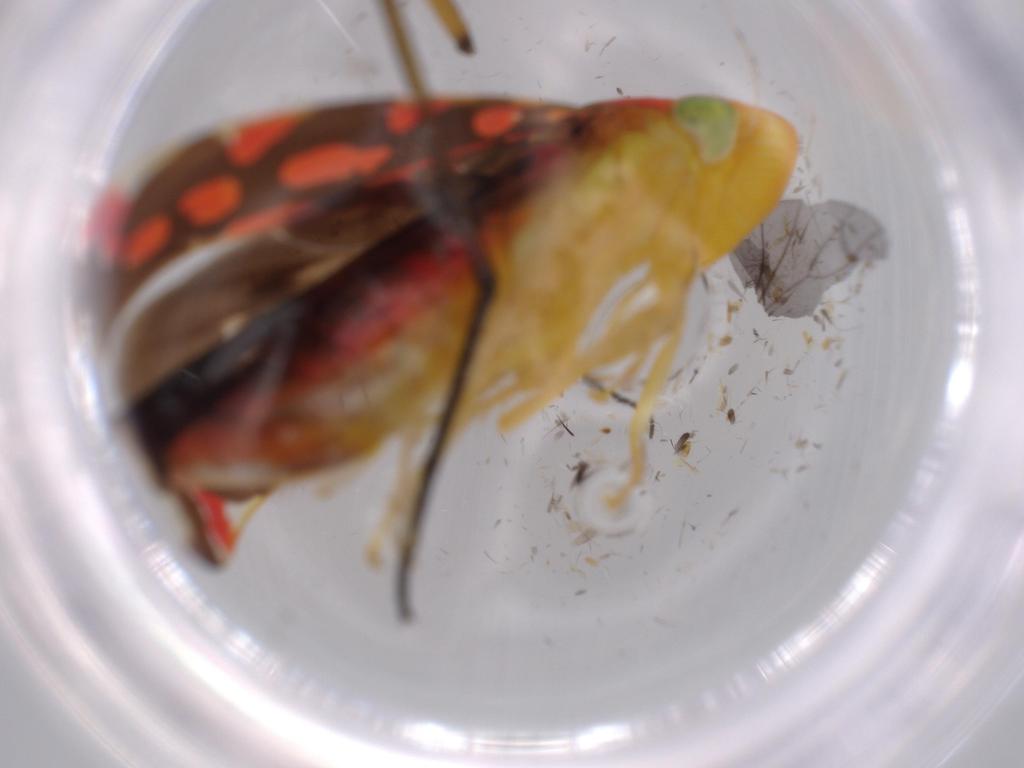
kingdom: Animalia
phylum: Arthropoda
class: Insecta
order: Hemiptera
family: Cicadellidae
